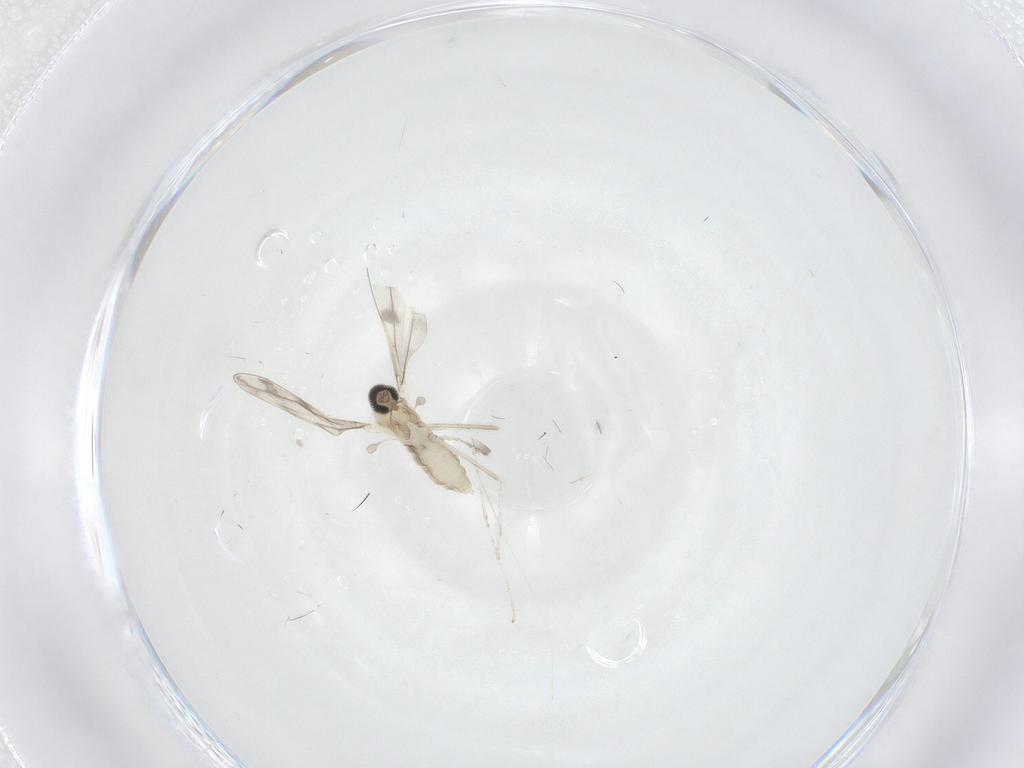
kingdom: Animalia
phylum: Arthropoda
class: Insecta
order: Diptera
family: Cecidomyiidae
